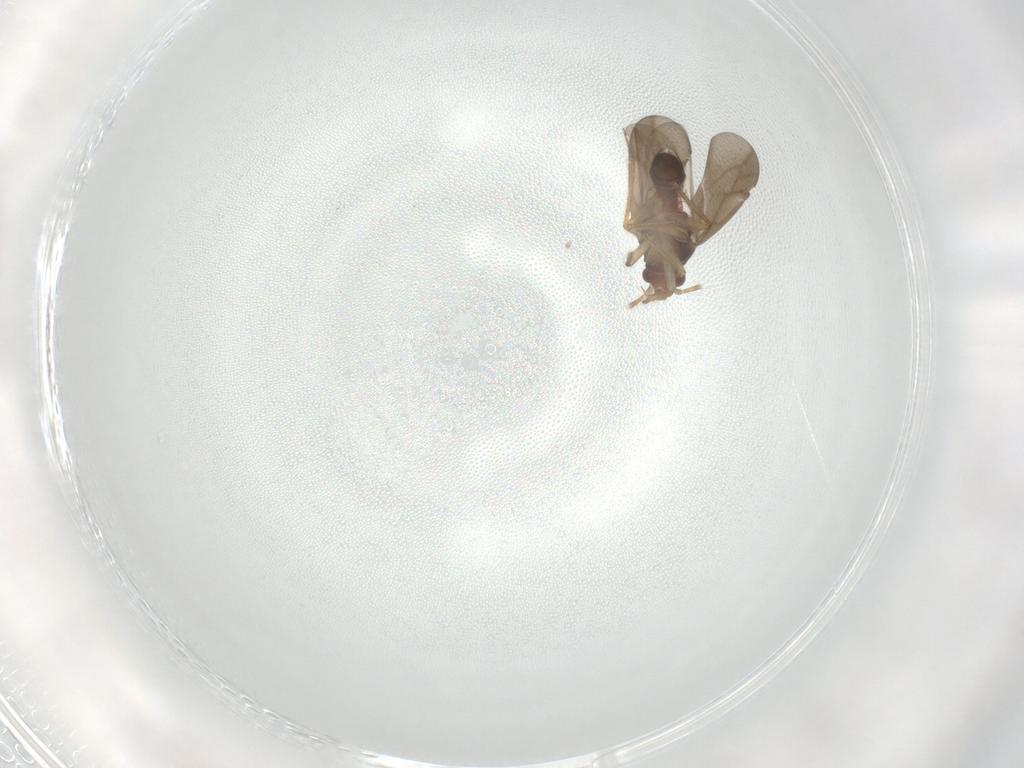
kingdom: Animalia
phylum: Arthropoda
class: Insecta
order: Hemiptera
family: Ceratocombidae
